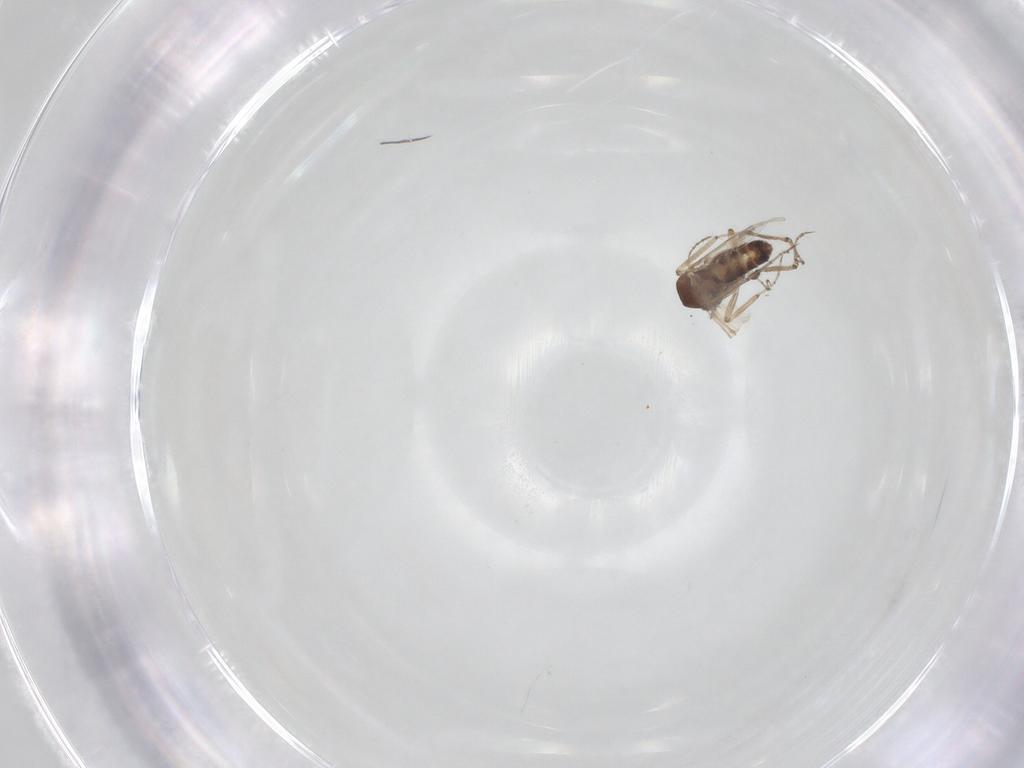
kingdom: Animalia
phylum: Arthropoda
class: Insecta
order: Diptera
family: Ceratopogonidae
